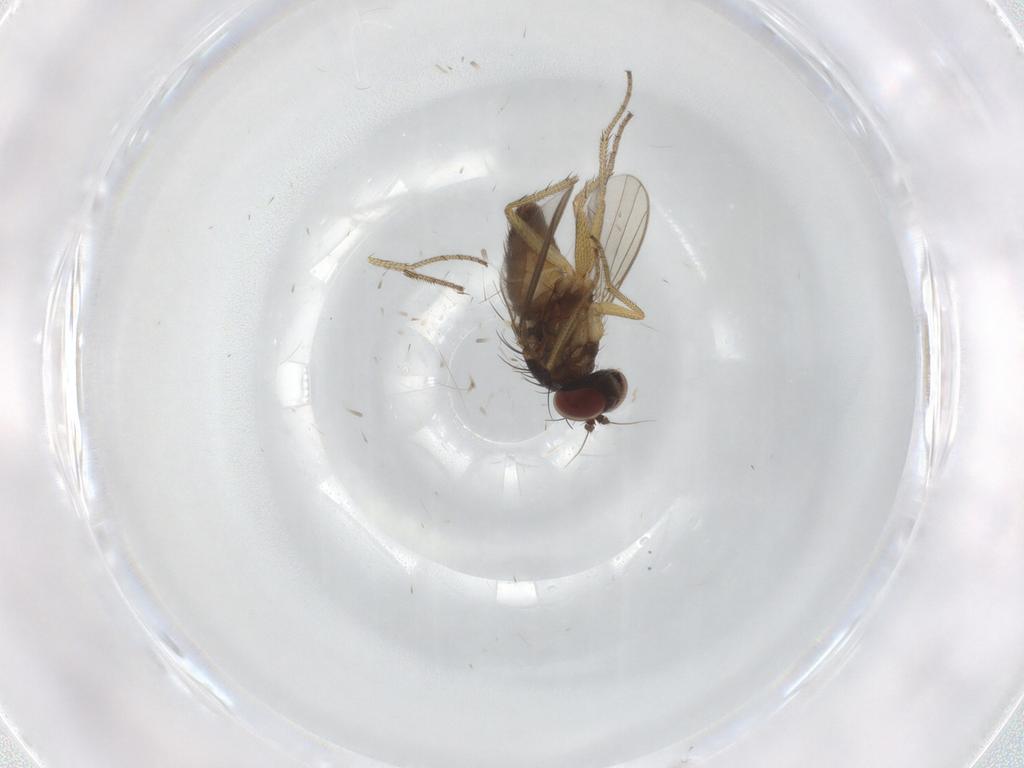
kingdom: Animalia
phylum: Arthropoda
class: Insecta
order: Diptera
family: Dolichopodidae
